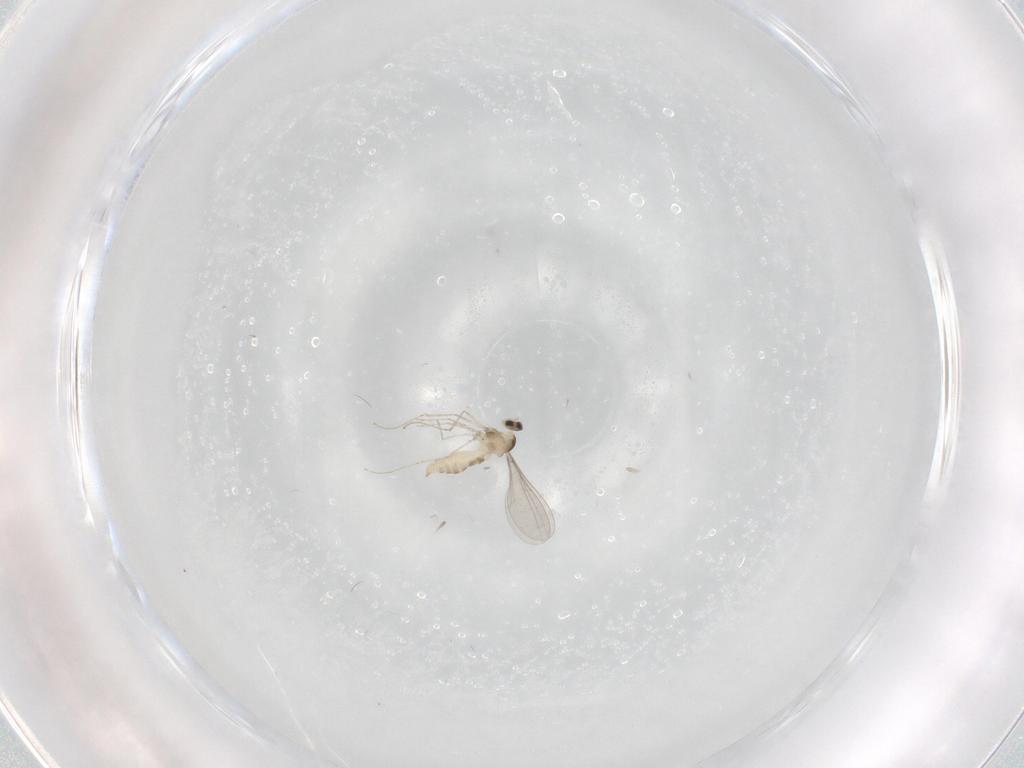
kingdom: Animalia
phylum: Arthropoda
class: Insecta
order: Diptera
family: Cecidomyiidae
